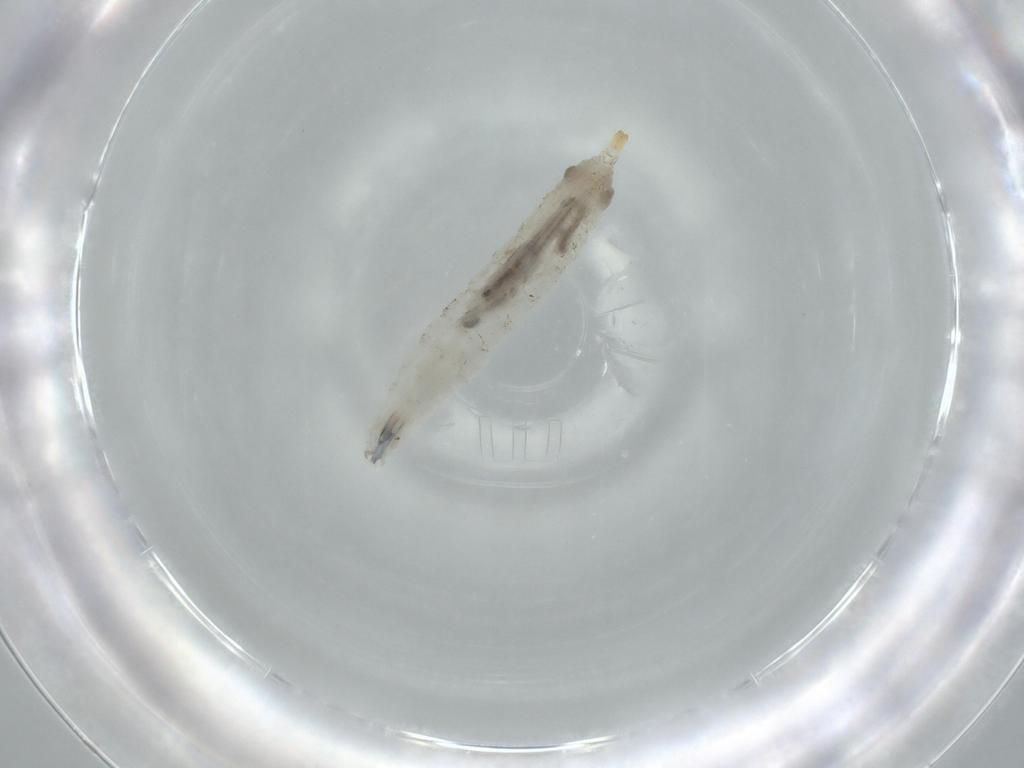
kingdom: Animalia
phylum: Arthropoda
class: Insecta
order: Diptera
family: Drosophilidae
